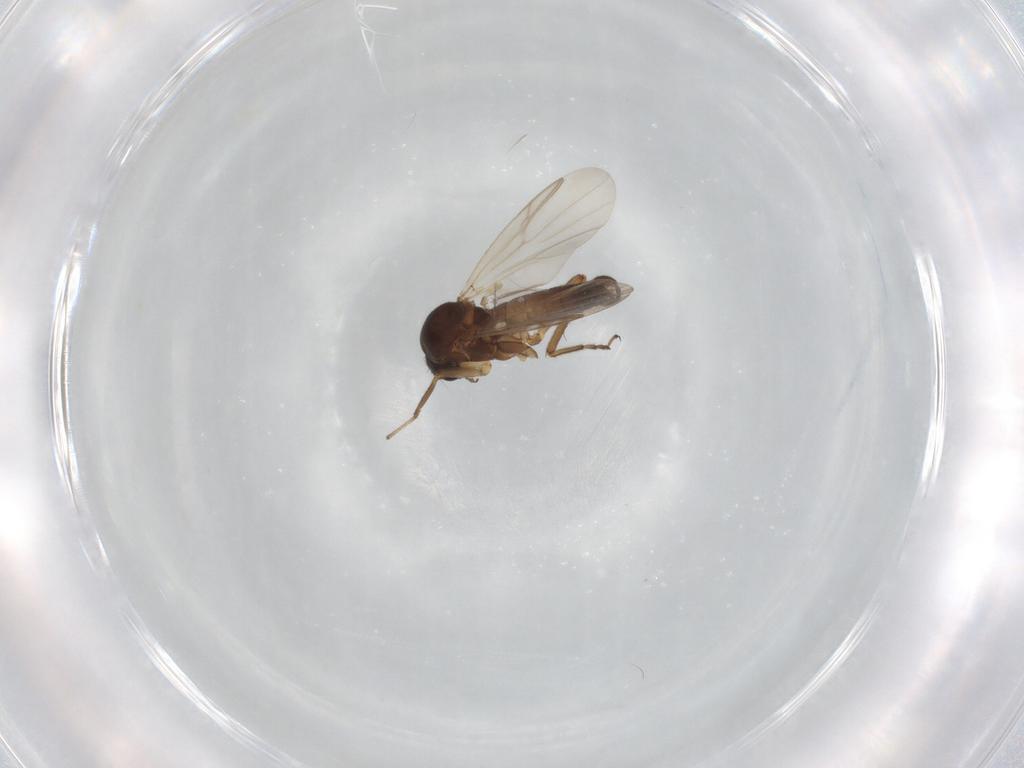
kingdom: Animalia
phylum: Arthropoda
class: Insecta
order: Diptera
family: Ceratopogonidae
